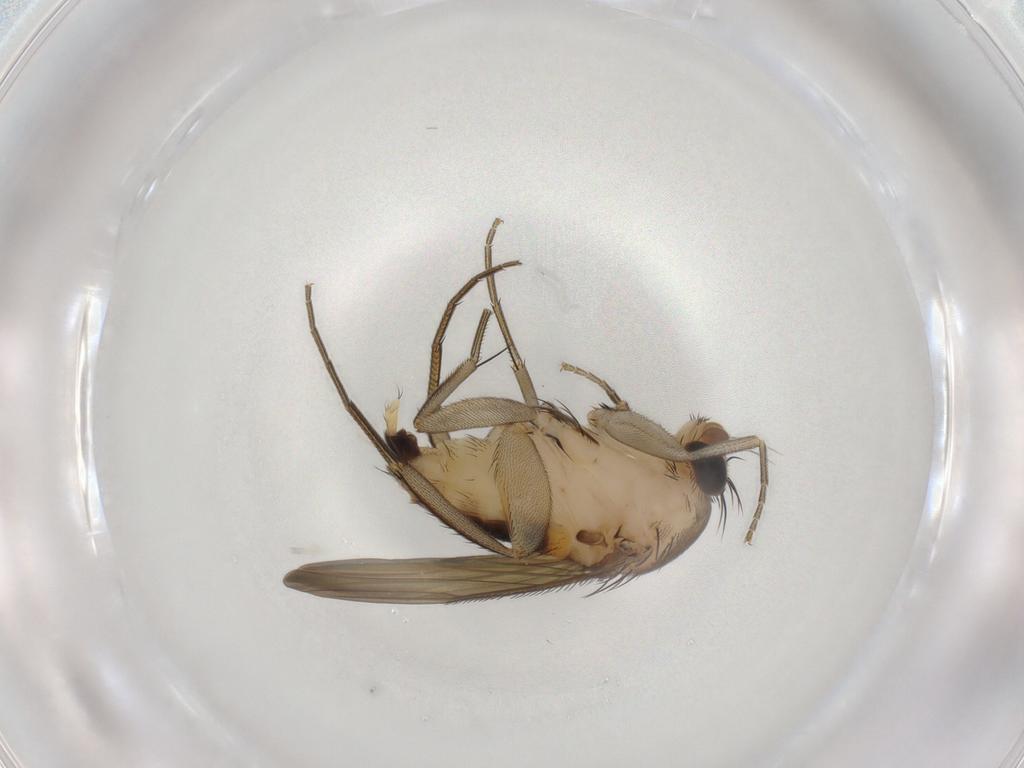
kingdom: Animalia
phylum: Arthropoda
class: Insecta
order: Diptera
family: Phoridae
